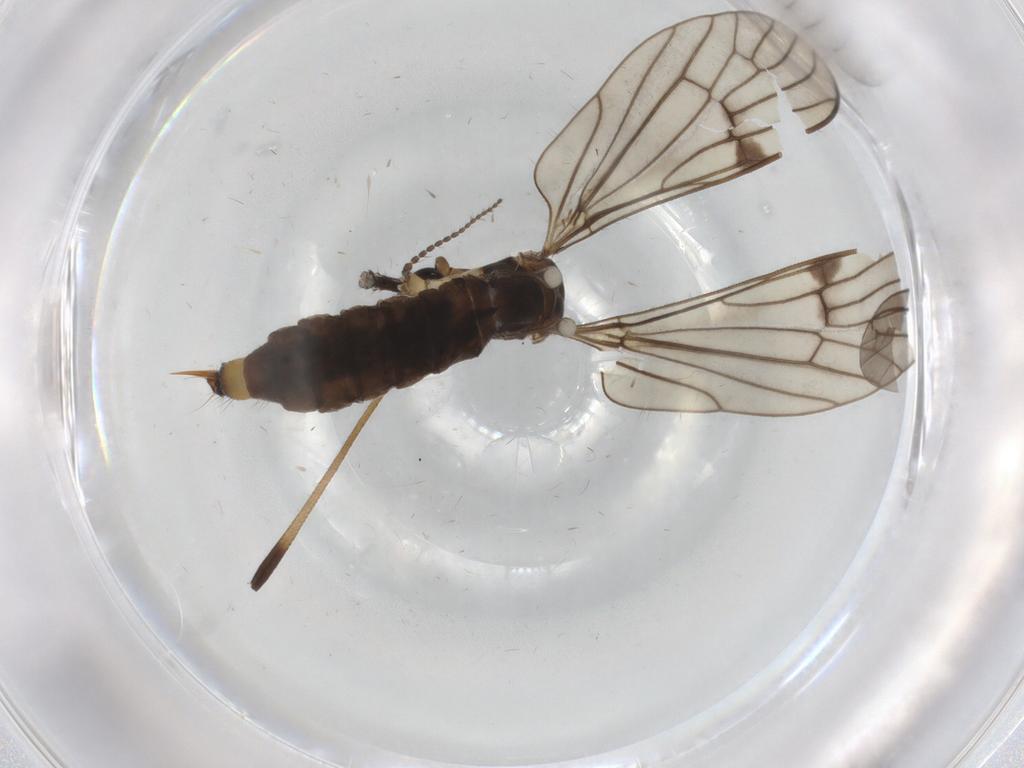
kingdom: Animalia
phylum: Arthropoda
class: Insecta
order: Diptera
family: Limoniidae
